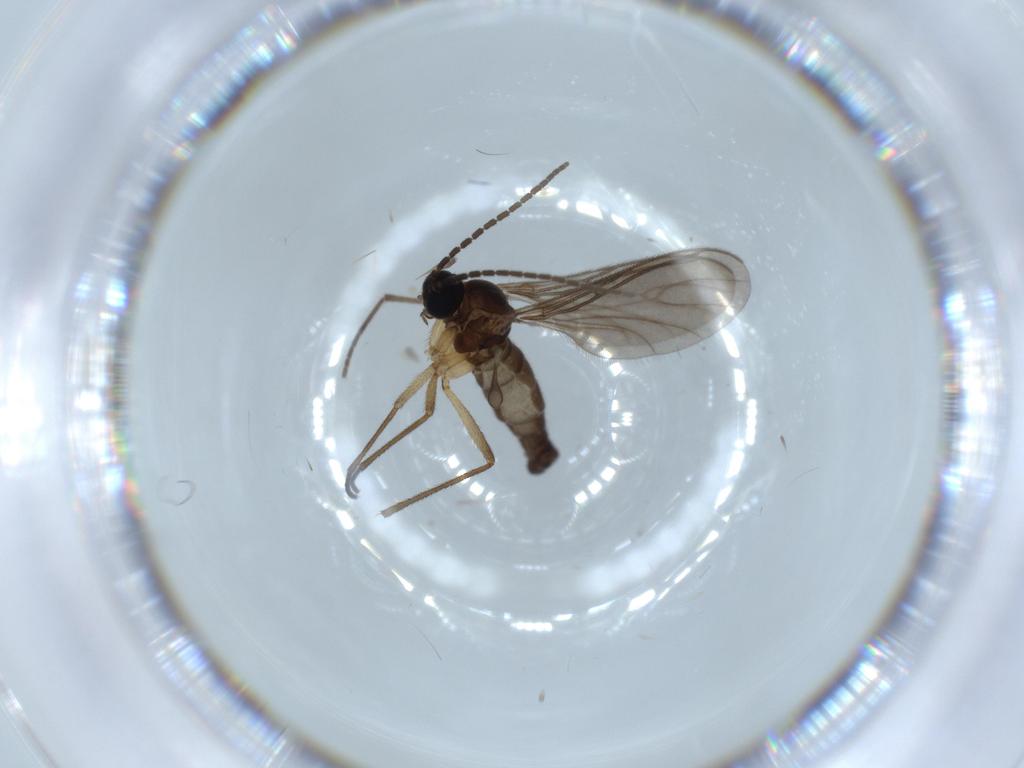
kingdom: Animalia
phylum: Arthropoda
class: Insecta
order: Diptera
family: Sciaridae
